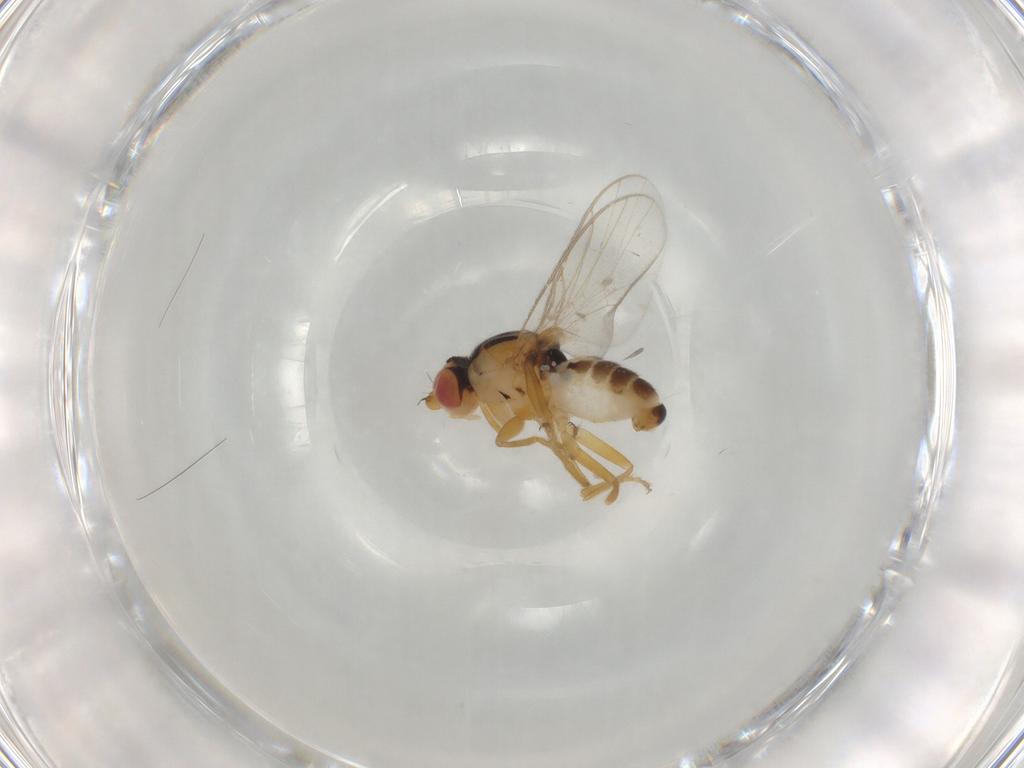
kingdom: Animalia
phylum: Arthropoda
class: Insecta
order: Diptera
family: Chloropidae
